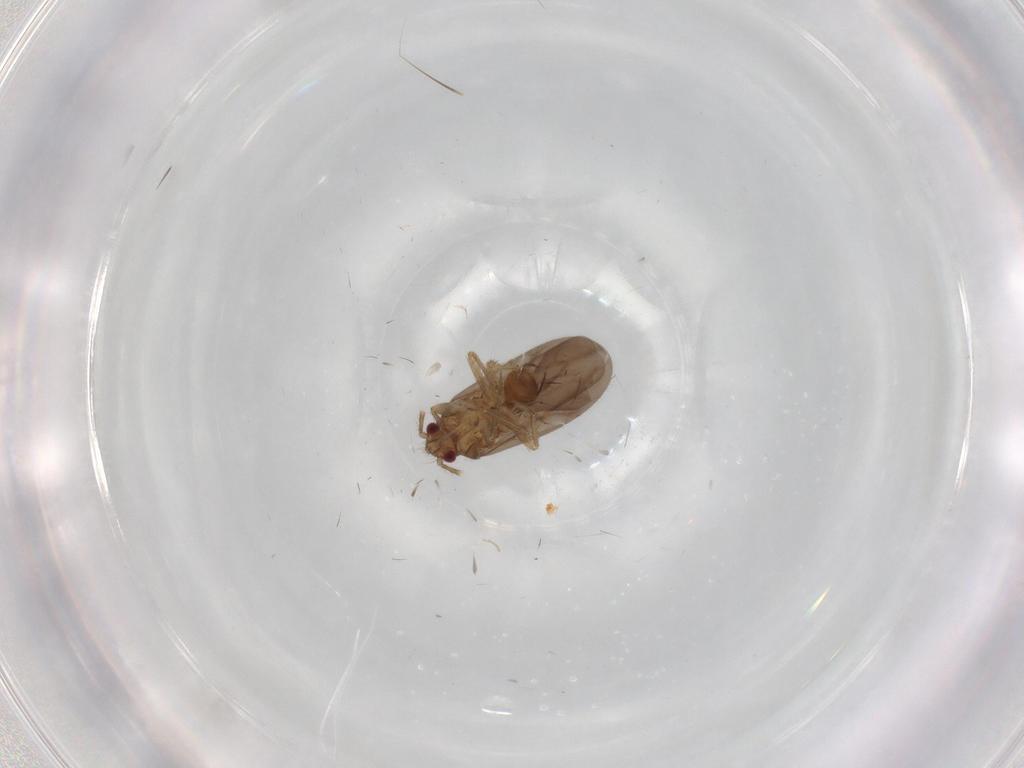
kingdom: Animalia
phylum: Arthropoda
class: Insecta
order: Hemiptera
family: Ceratocombidae
